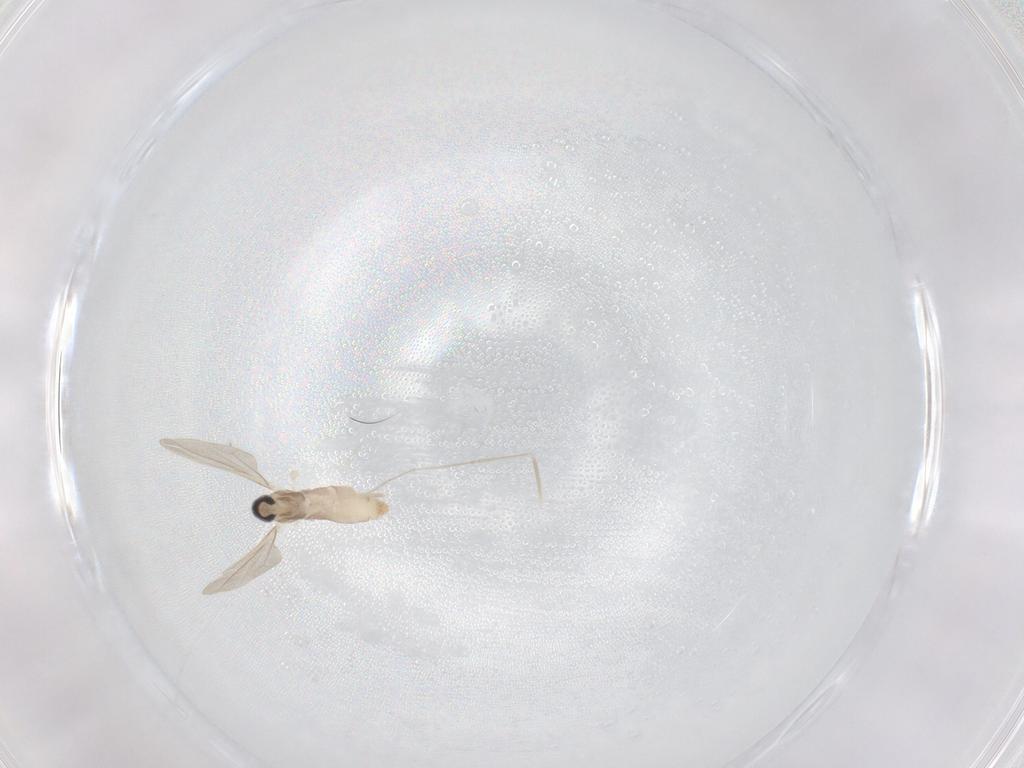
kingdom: Animalia
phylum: Arthropoda
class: Insecta
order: Diptera
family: Cecidomyiidae
